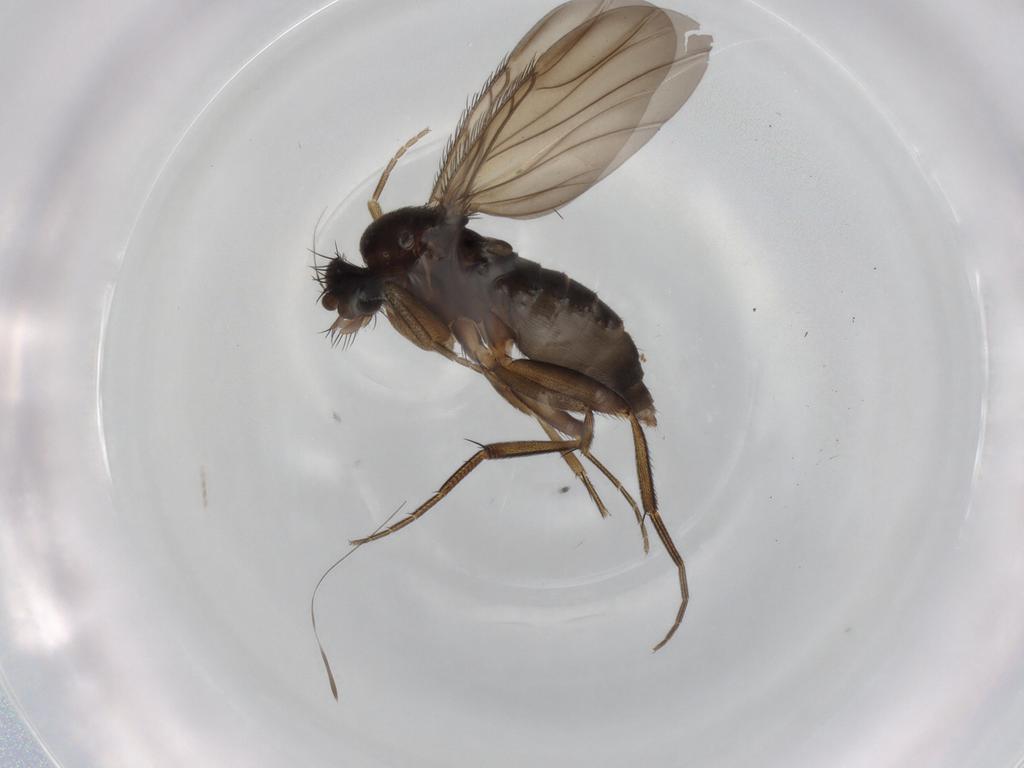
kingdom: Animalia
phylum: Arthropoda
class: Insecta
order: Diptera
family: Phoridae
